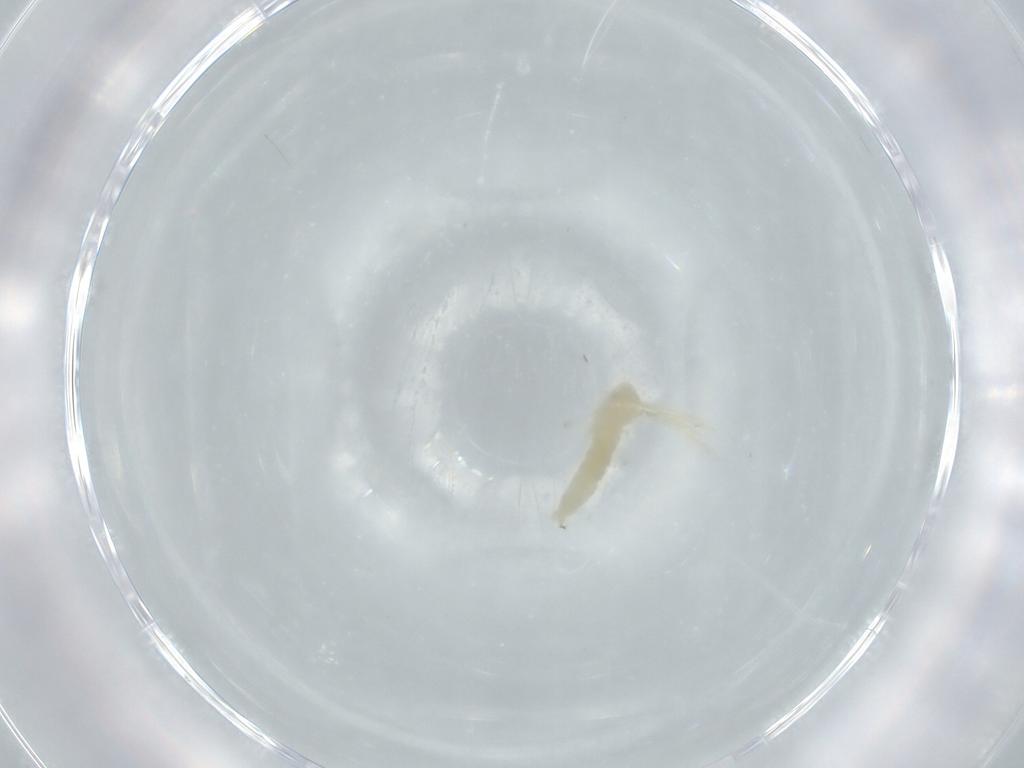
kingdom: Animalia
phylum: Arthropoda
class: Insecta
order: Diptera
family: Cecidomyiidae
